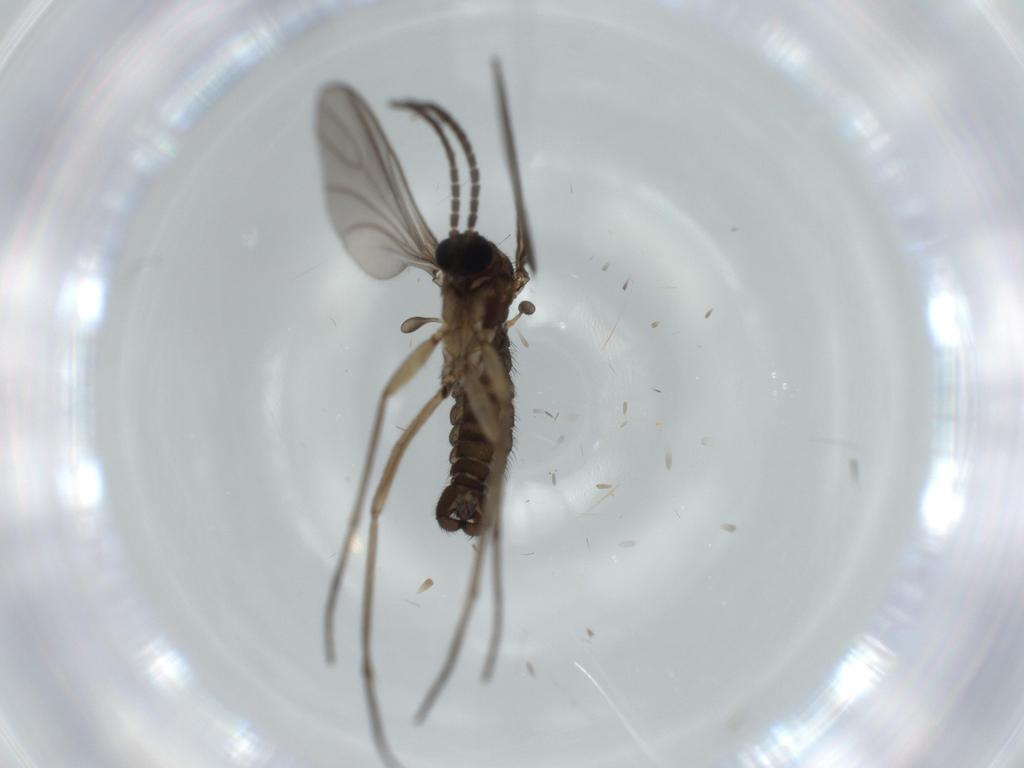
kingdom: Animalia
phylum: Arthropoda
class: Insecta
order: Diptera
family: Sciaridae
